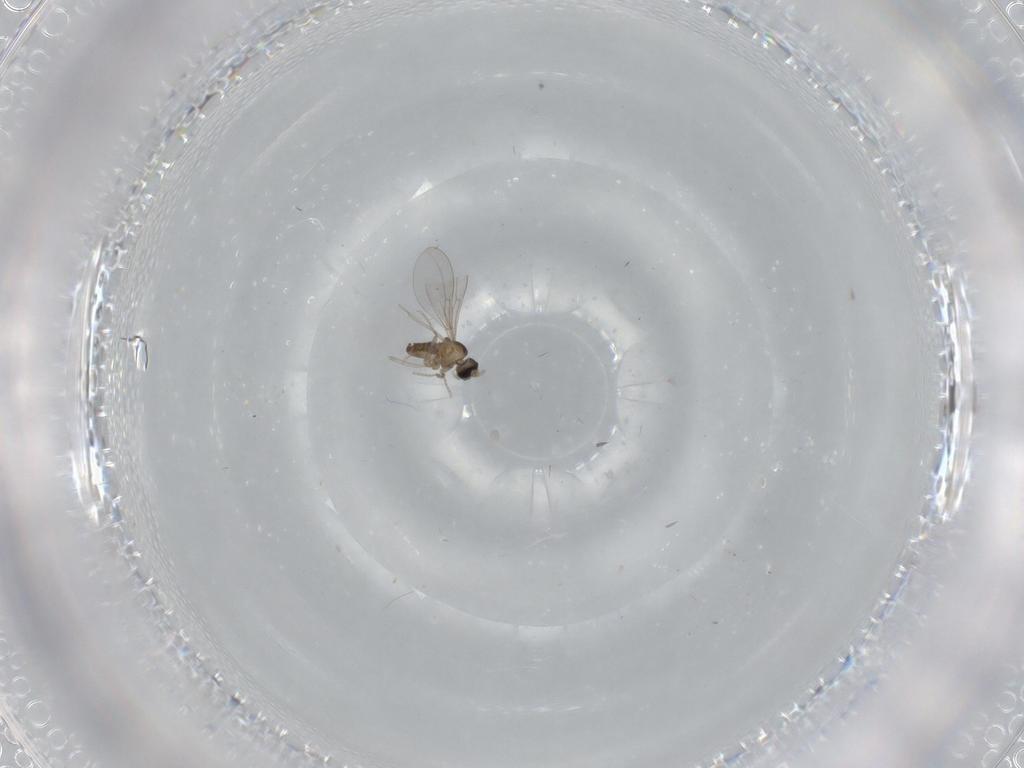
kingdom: Animalia
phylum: Arthropoda
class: Insecta
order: Diptera
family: Cecidomyiidae
